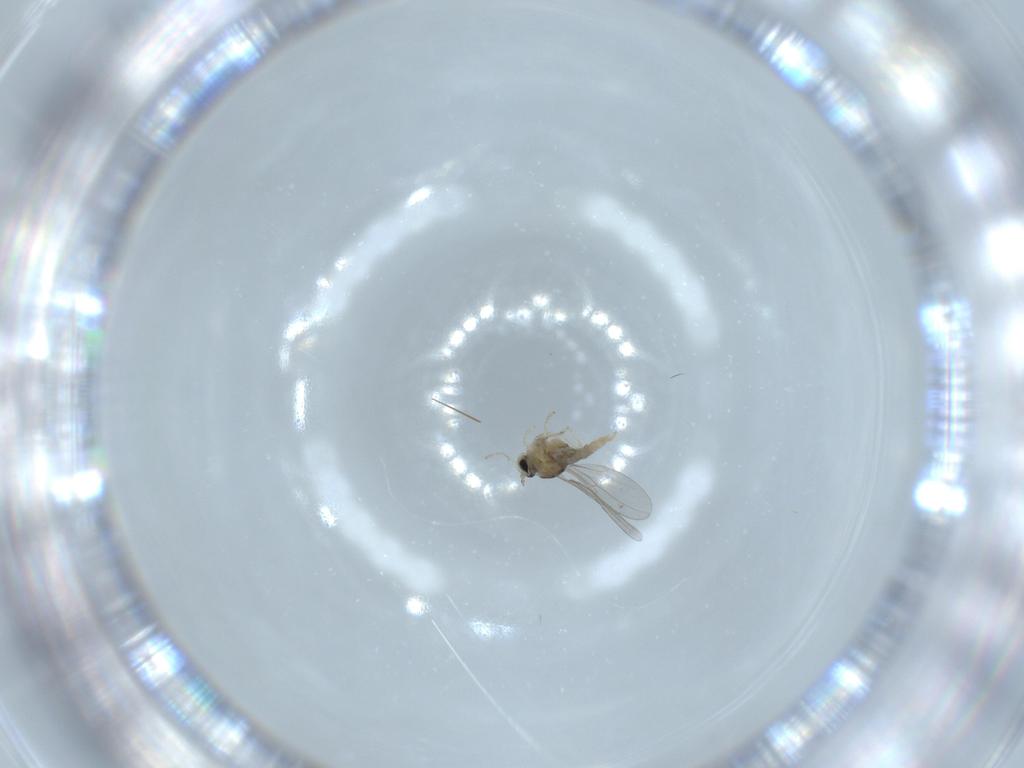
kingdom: Animalia
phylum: Arthropoda
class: Insecta
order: Diptera
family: Cecidomyiidae
